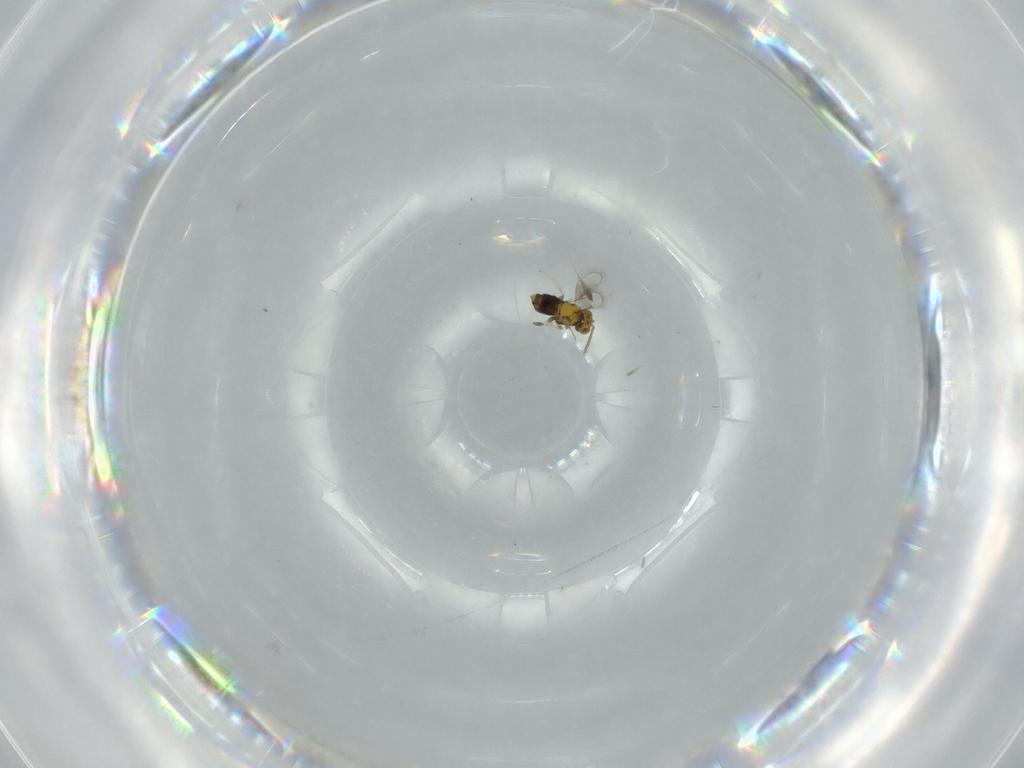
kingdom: Animalia
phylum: Arthropoda
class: Insecta
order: Hymenoptera
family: Aphelinidae
